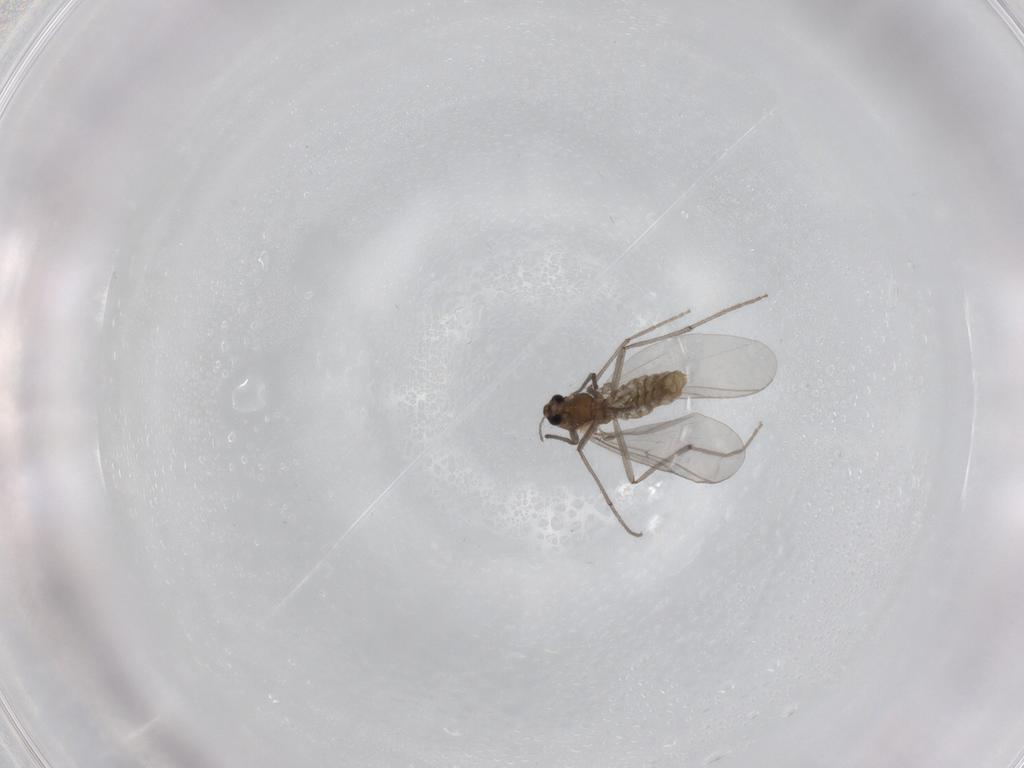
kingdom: Animalia
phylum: Arthropoda
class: Insecta
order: Diptera
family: Chironomidae
